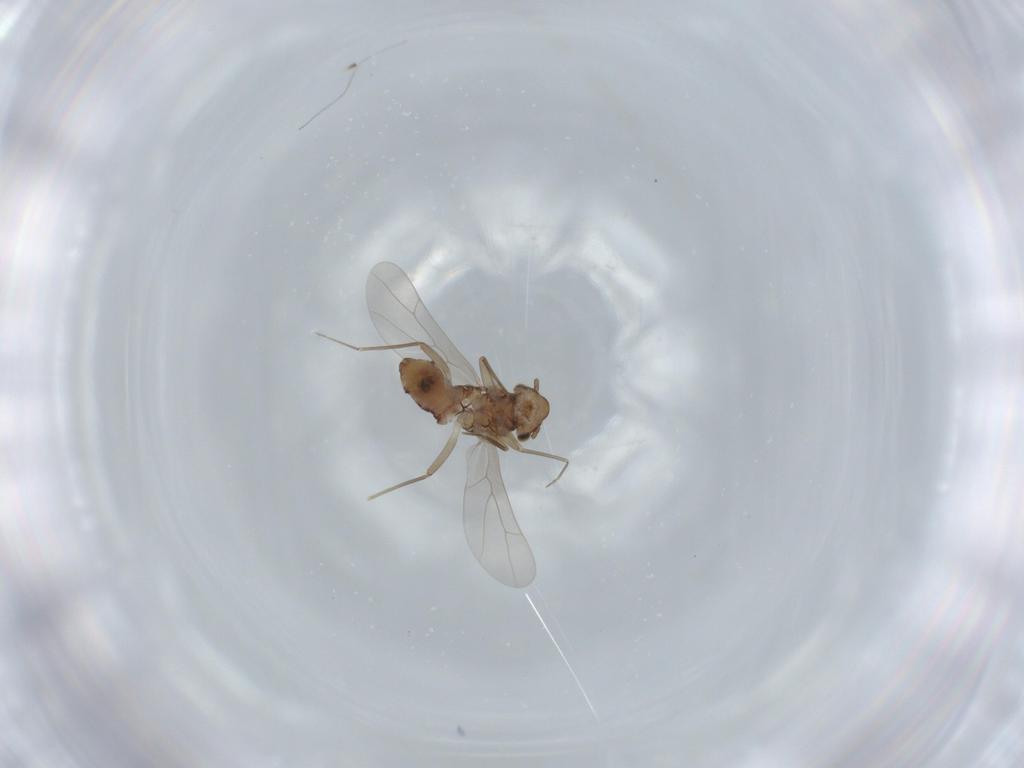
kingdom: Animalia
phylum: Arthropoda
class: Insecta
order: Psocodea
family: Lepidopsocidae
